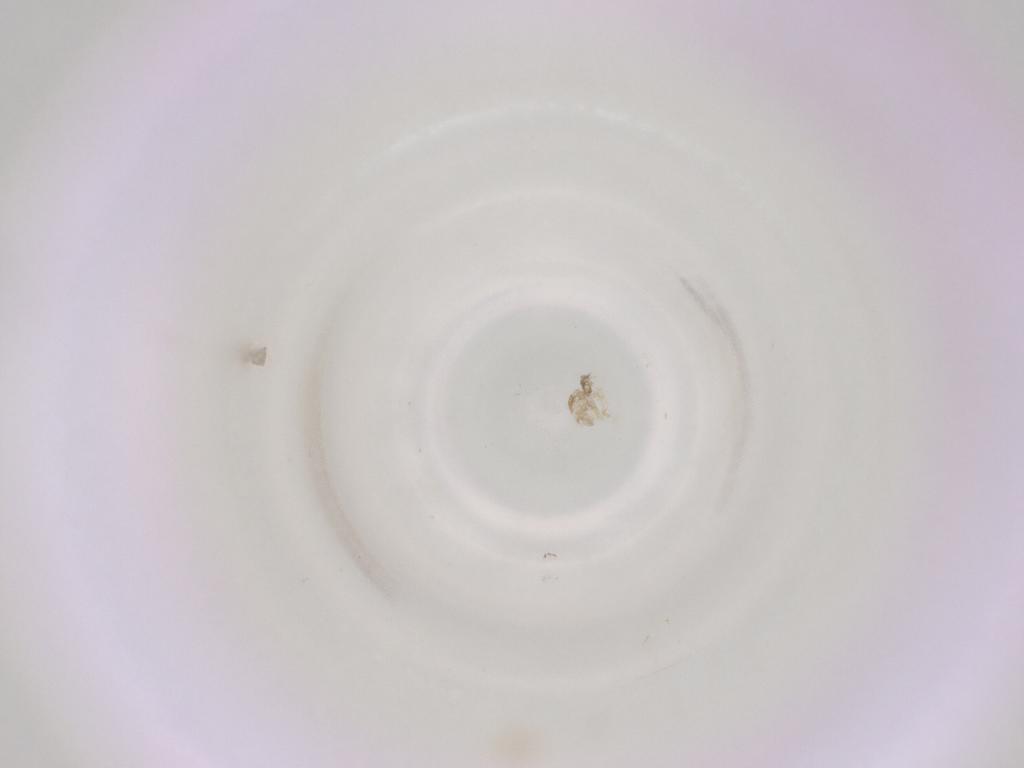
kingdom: Animalia
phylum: Arthropoda
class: Insecta
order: Diptera
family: Cecidomyiidae
